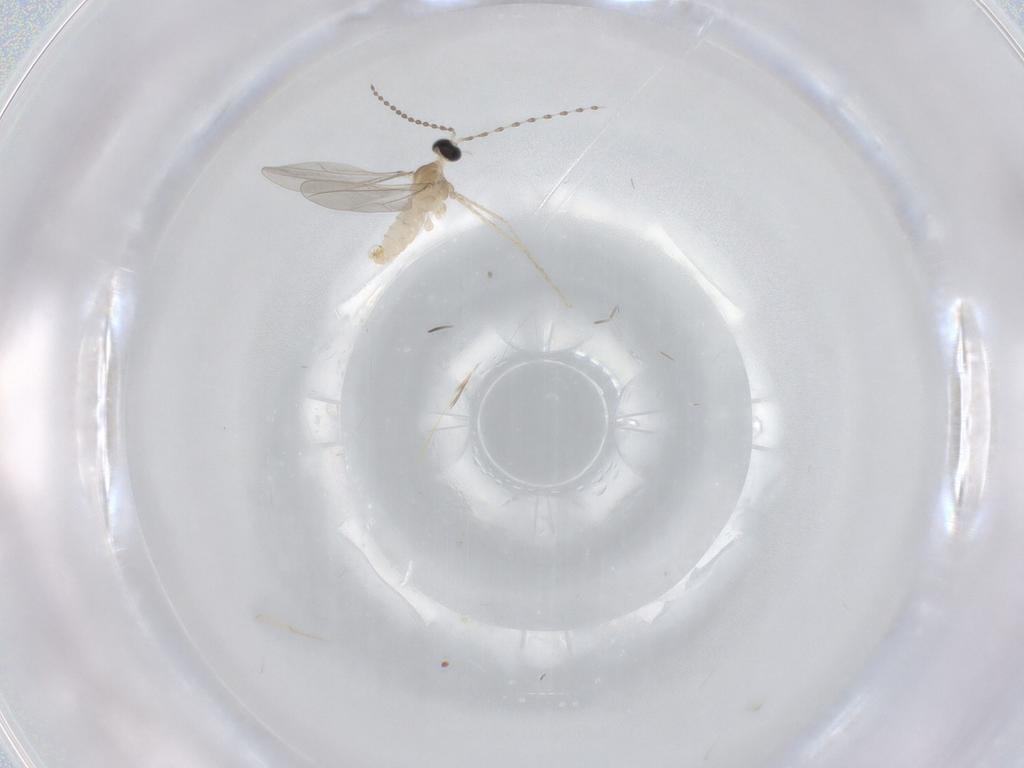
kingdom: Animalia
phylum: Arthropoda
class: Insecta
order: Diptera
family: Cecidomyiidae
